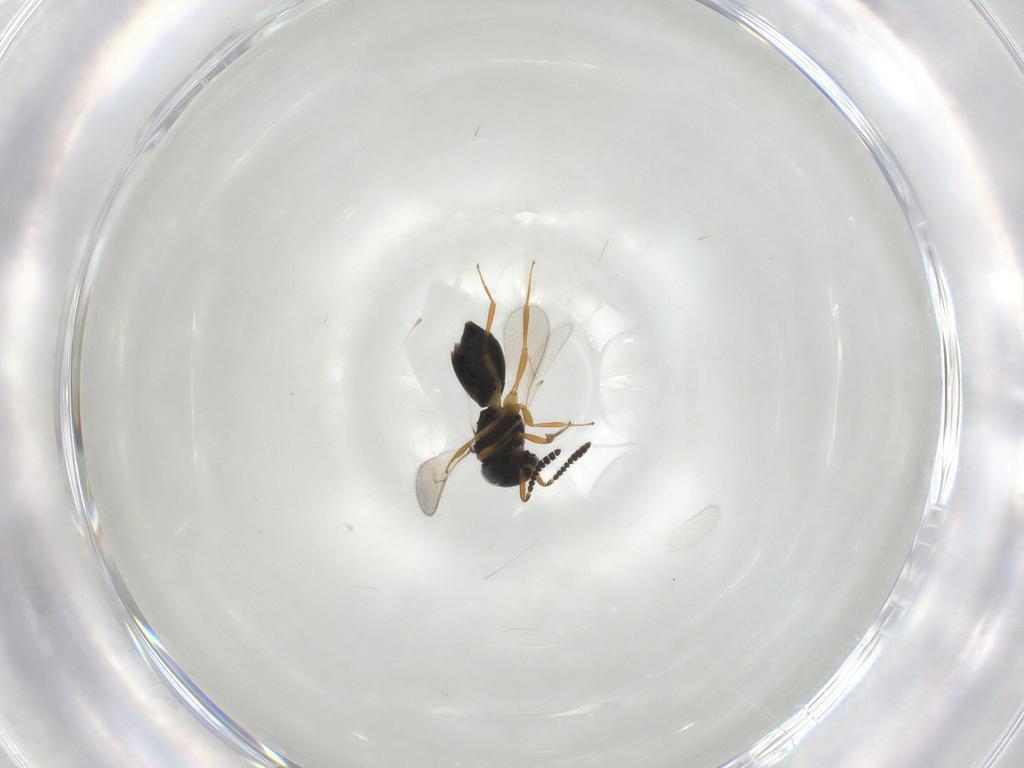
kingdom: Animalia
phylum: Arthropoda
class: Insecta
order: Hymenoptera
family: Scelionidae
